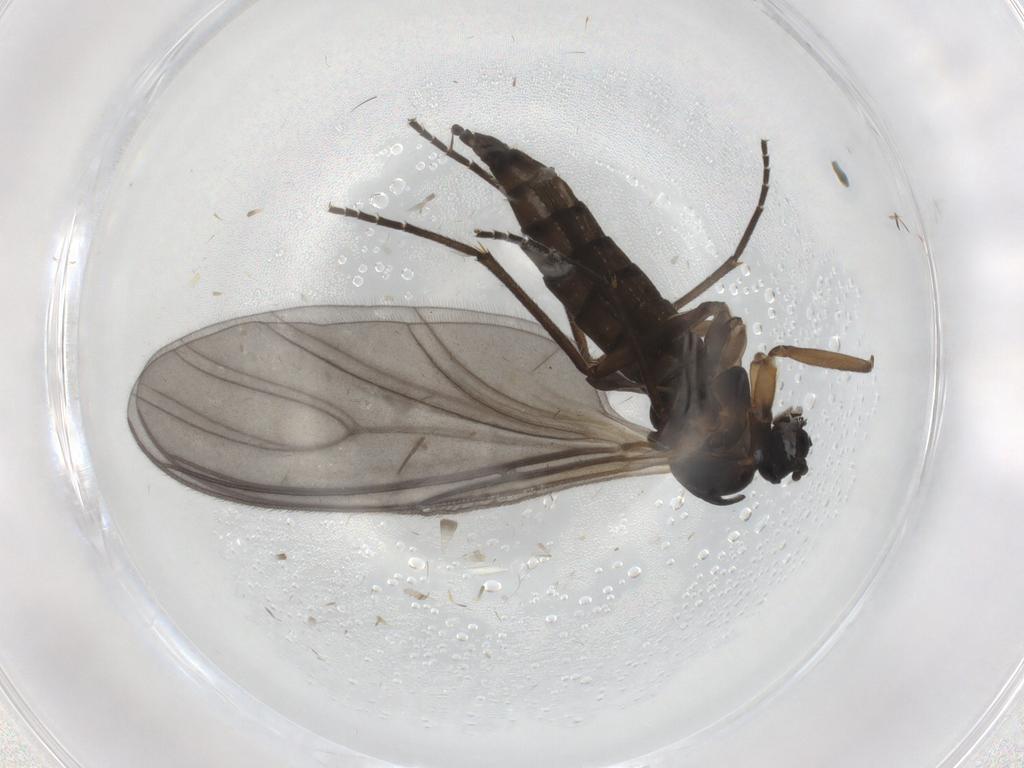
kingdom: Animalia
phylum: Arthropoda
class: Insecta
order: Diptera
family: Sciaridae
